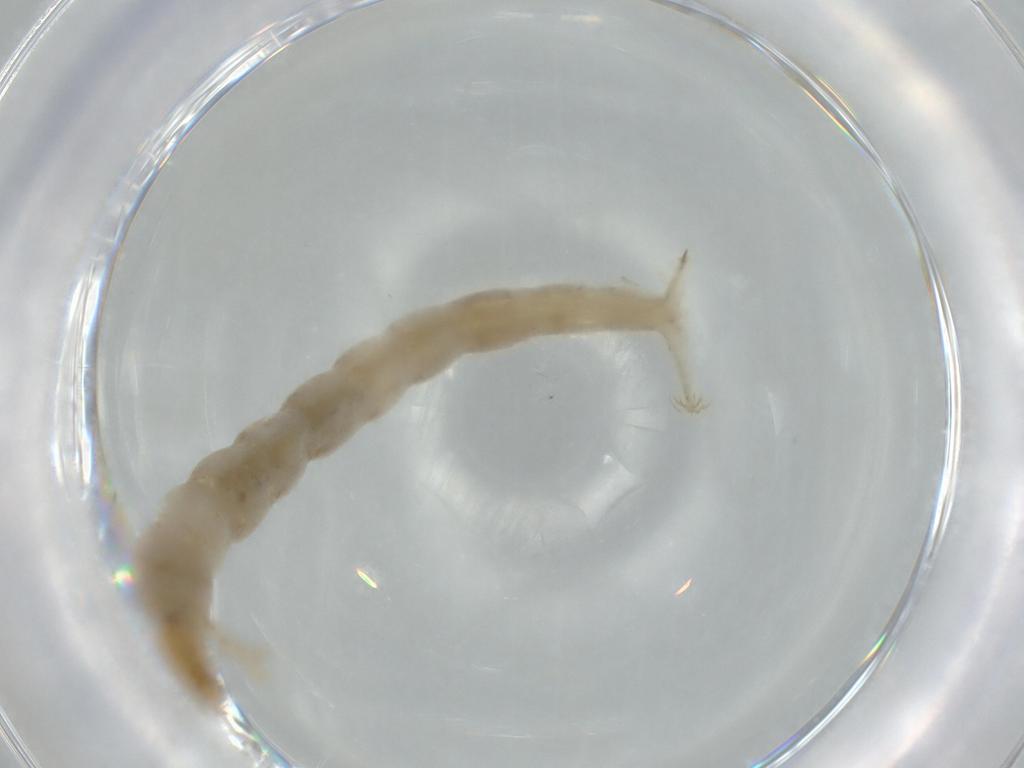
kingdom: Animalia
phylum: Arthropoda
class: Insecta
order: Diptera
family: Chironomidae
